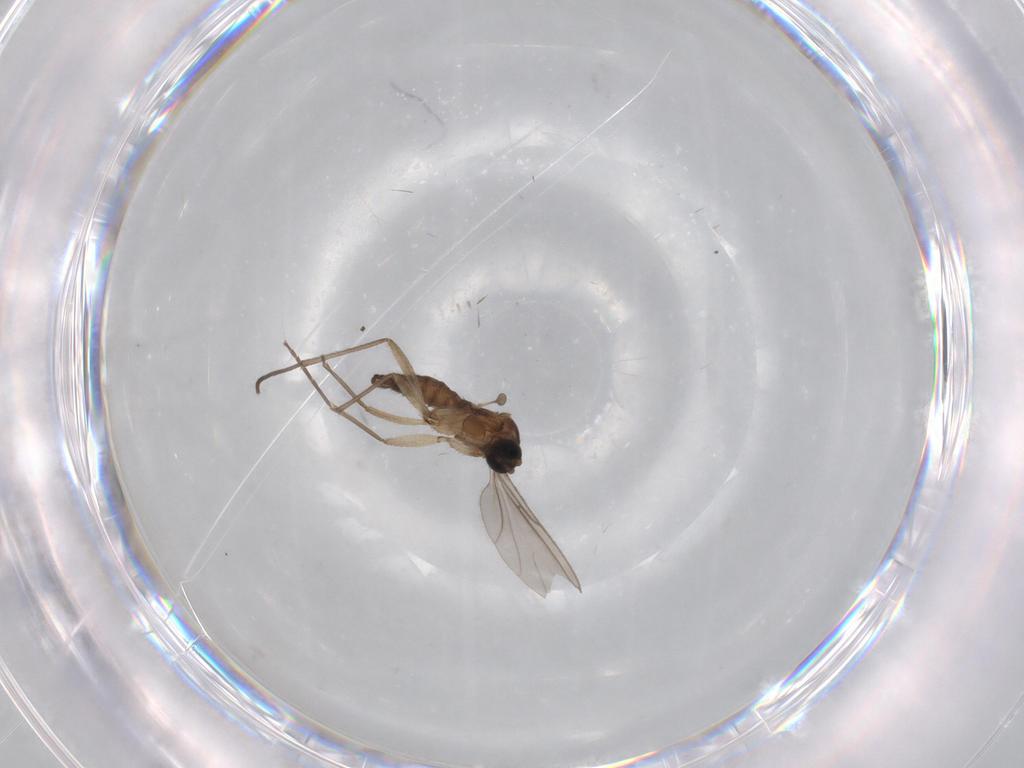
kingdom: Animalia
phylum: Arthropoda
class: Insecta
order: Diptera
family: Sciaridae
